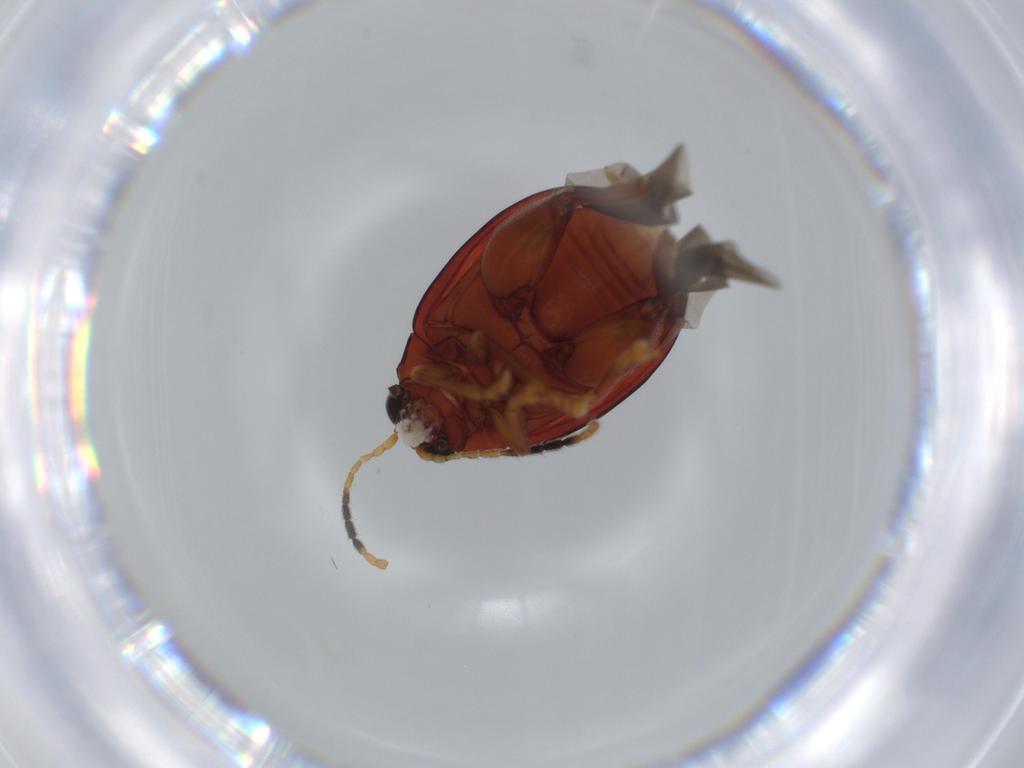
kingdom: Animalia
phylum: Arthropoda
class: Insecta
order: Coleoptera
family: Chrysomelidae
